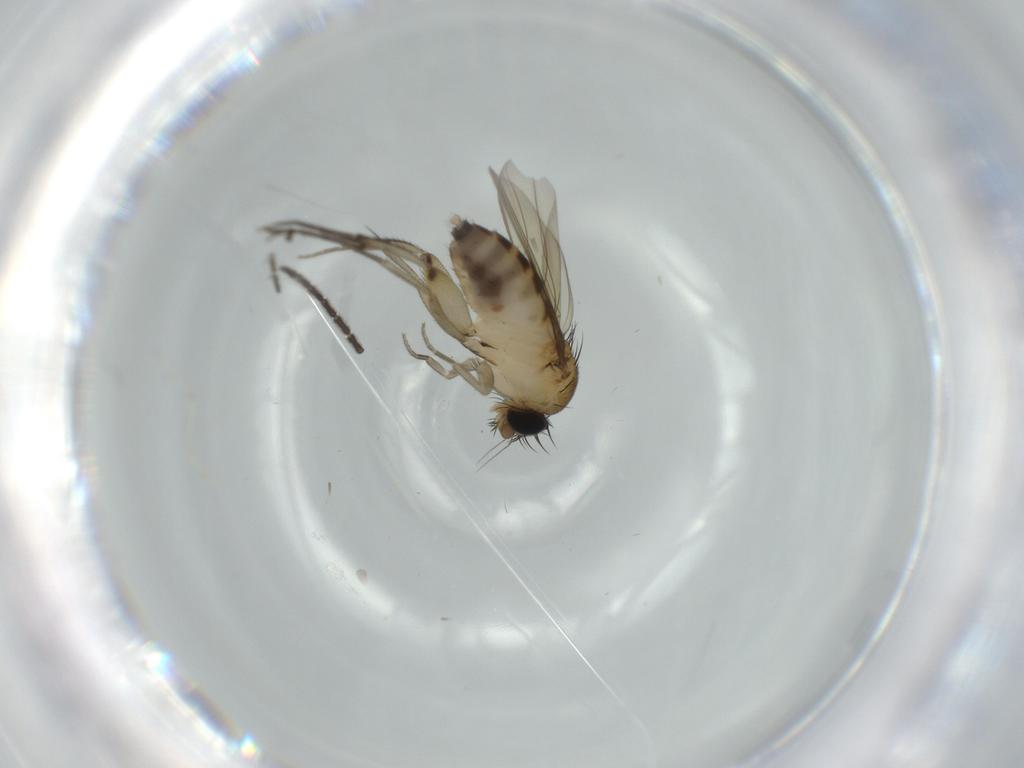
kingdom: Animalia
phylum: Arthropoda
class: Insecta
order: Diptera
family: Phoridae
